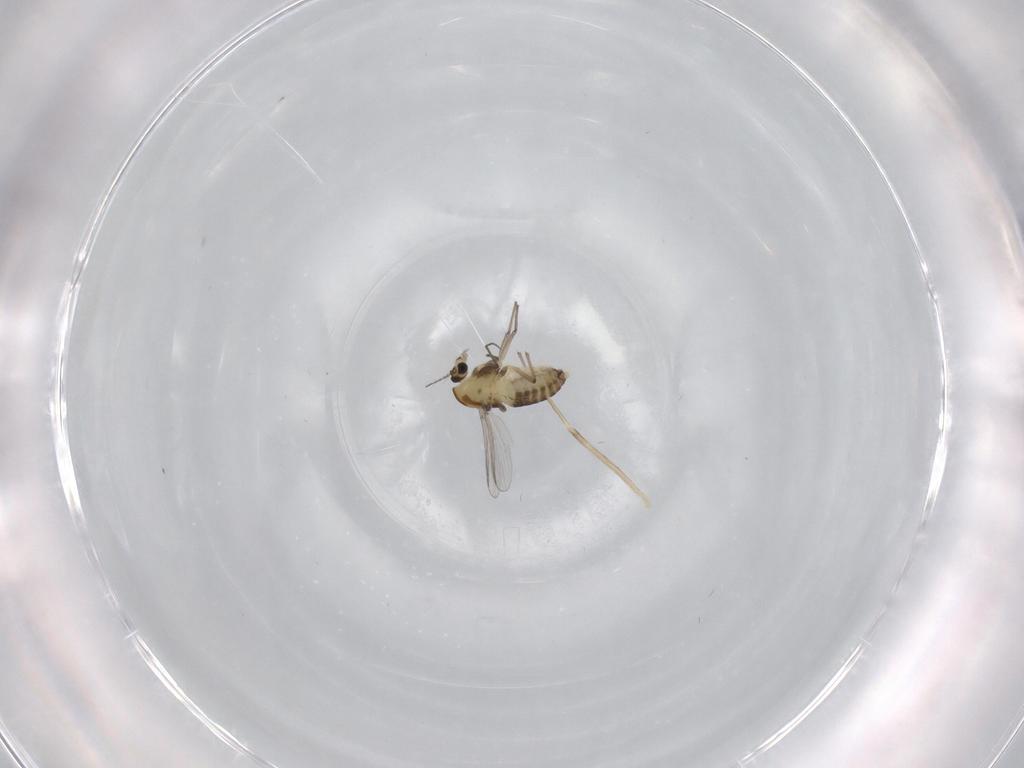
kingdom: Animalia
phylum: Arthropoda
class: Insecta
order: Diptera
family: Chironomidae
